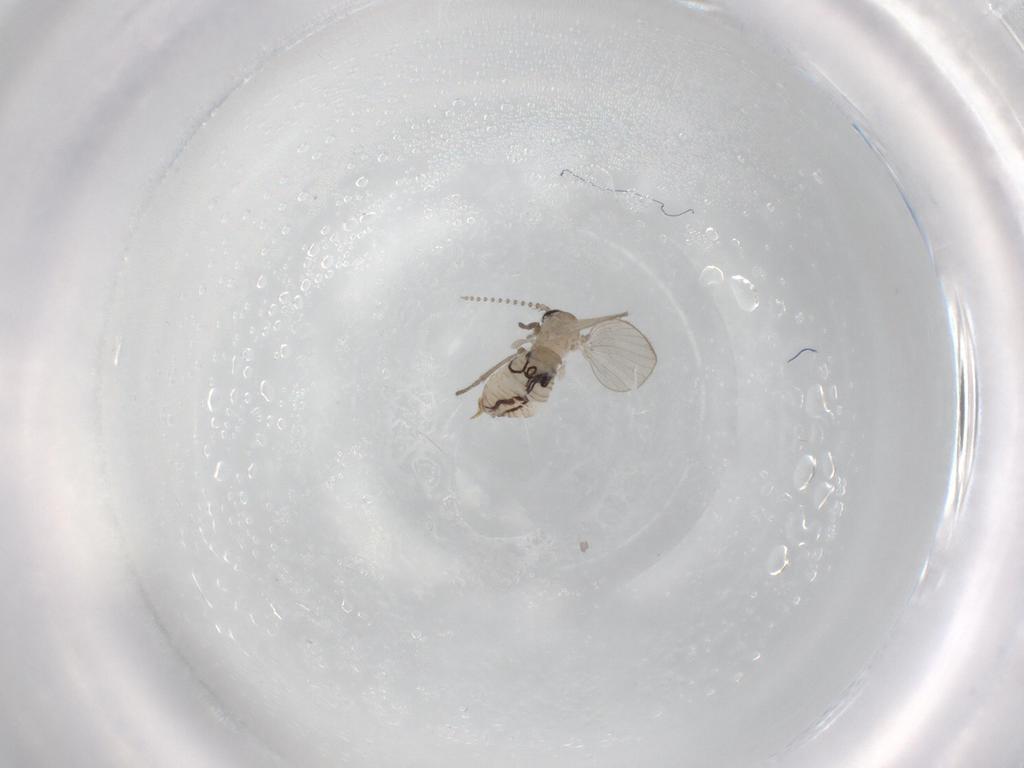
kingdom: Animalia
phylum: Arthropoda
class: Insecta
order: Diptera
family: Psychodidae
